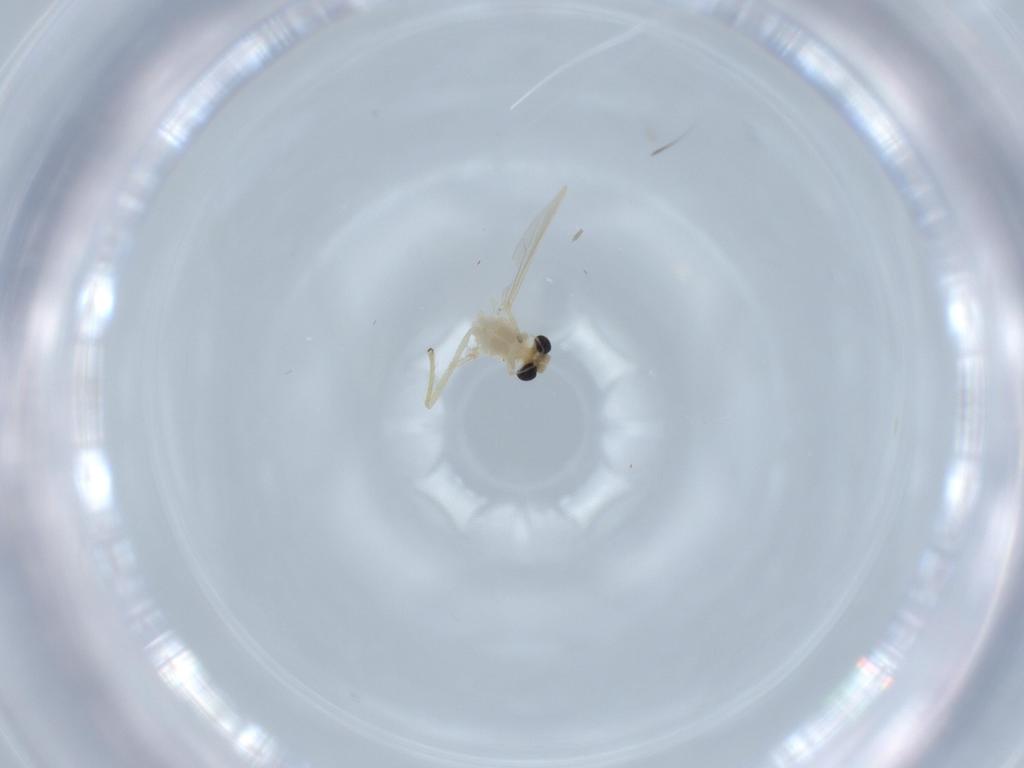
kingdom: Animalia
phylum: Arthropoda
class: Insecta
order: Diptera
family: Chironomidae
